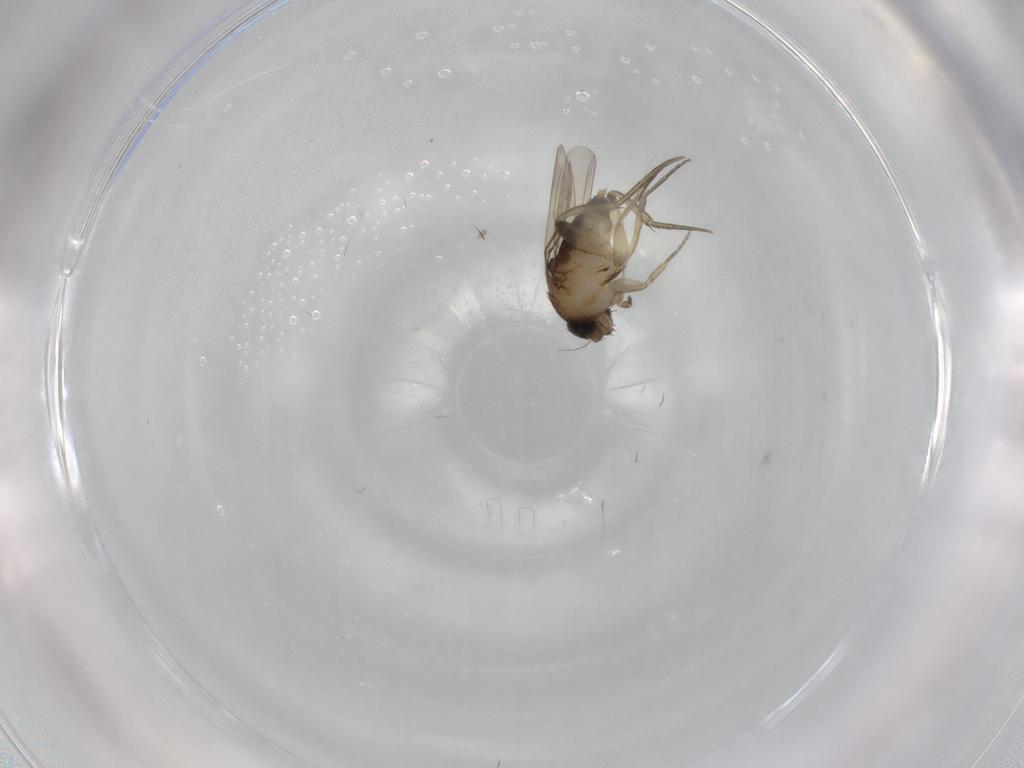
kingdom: Animalia
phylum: Arthropoda
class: Insecta
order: Diptera
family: Phoridae
